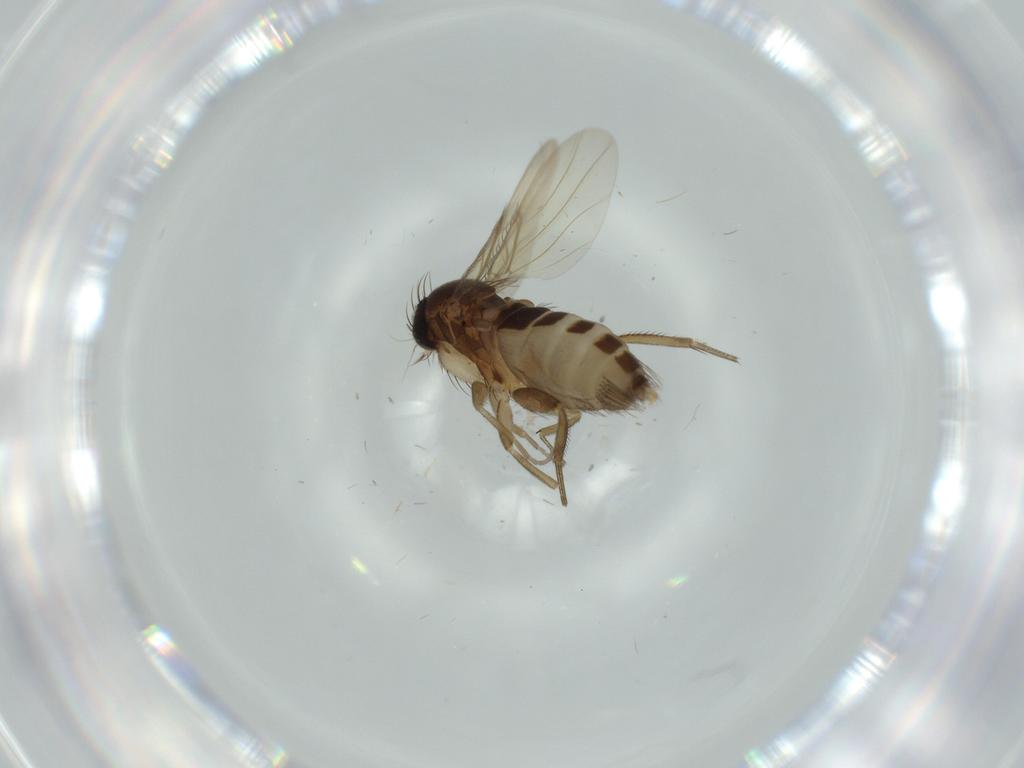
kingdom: Animalia
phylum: Arthropoda
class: Insecta
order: Diptera
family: Phoridae
